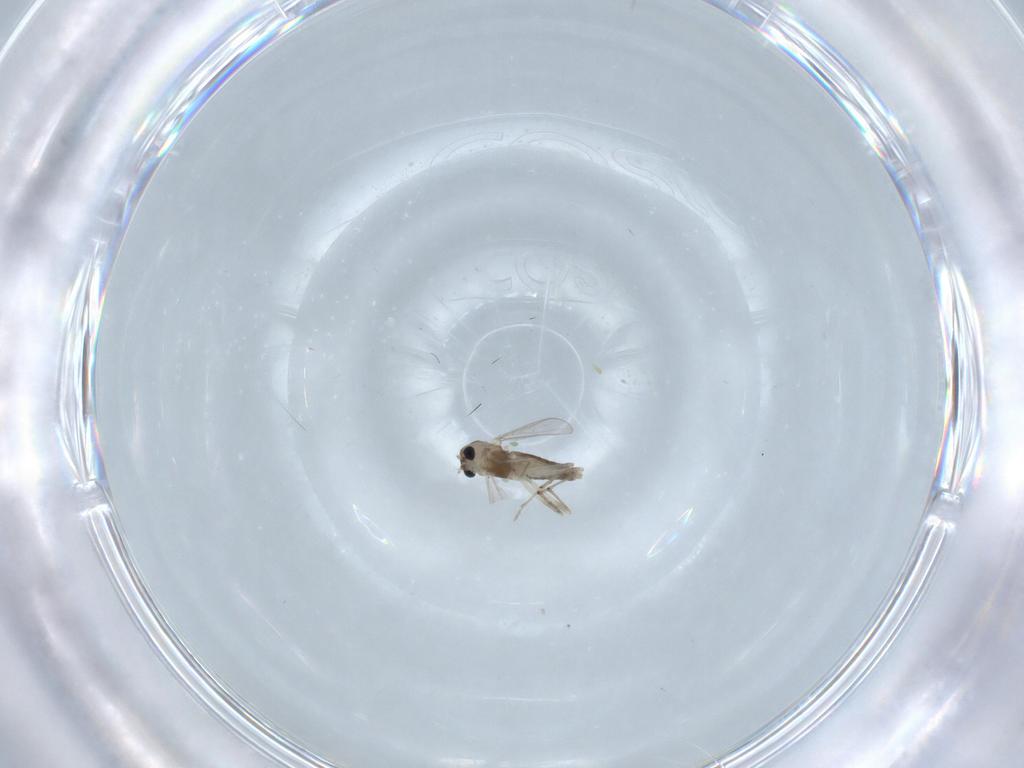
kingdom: Animalia
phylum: Arthropoda
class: Insecta
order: Diptera
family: Chironomidae
